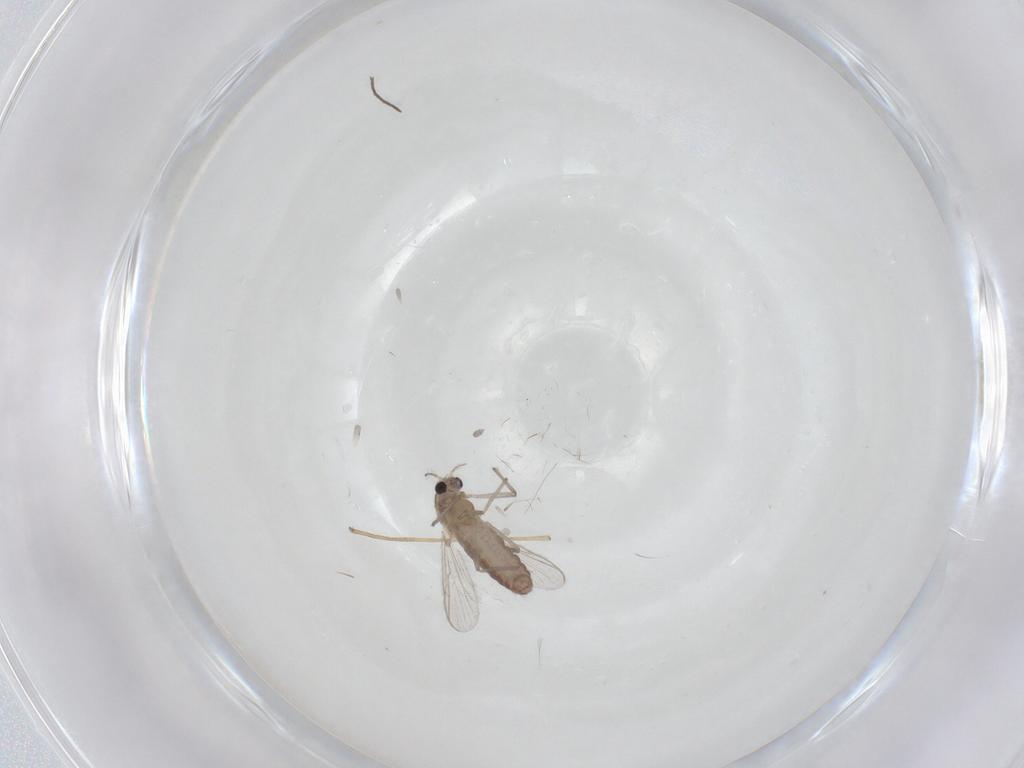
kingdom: Animalia
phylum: Arthropoda
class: Insecta
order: Diptera
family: Chironomidae
